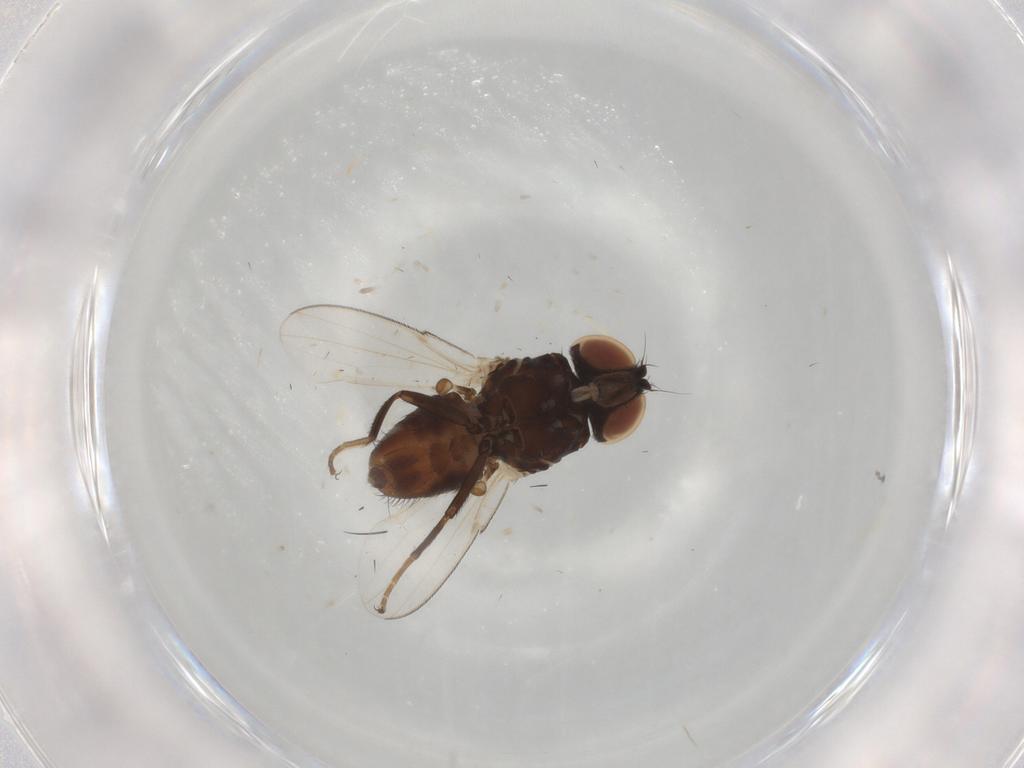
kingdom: Animalia
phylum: Arthropoda
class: Insecta
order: Diptera
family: Milichiidae
